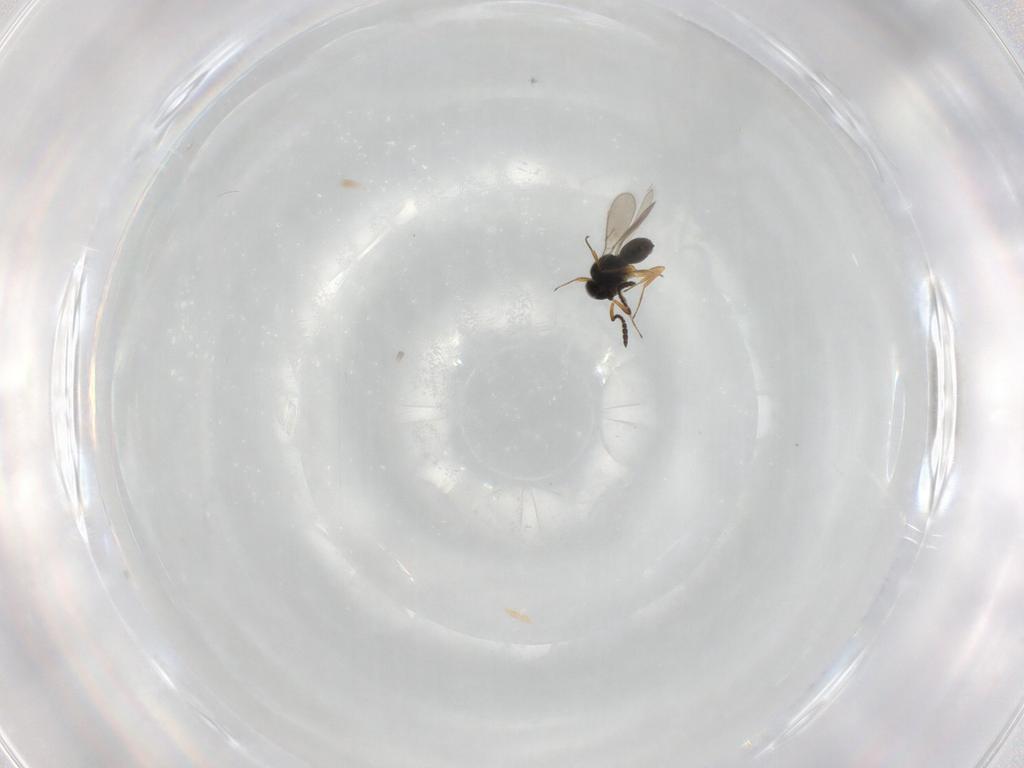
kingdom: Animalia
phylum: Arthropoda
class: Insecta
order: Hymenoptera
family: Scelionidae
